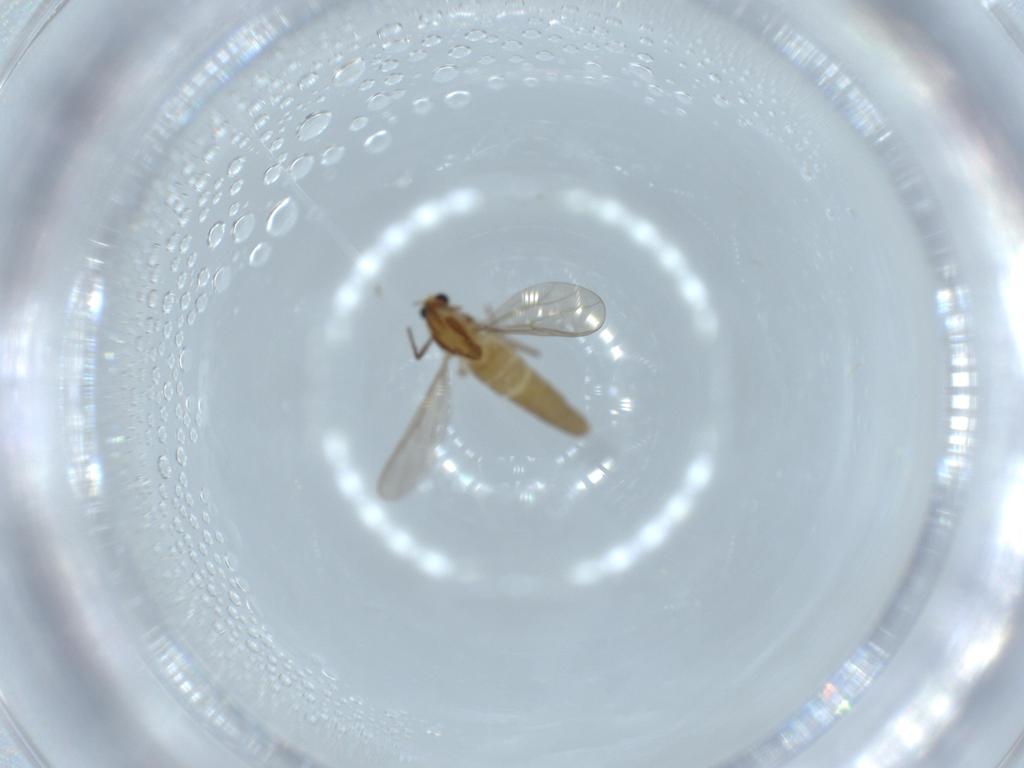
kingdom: Animalia
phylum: Arthropoda
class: Insecta
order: Diptera
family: Chironomidae
